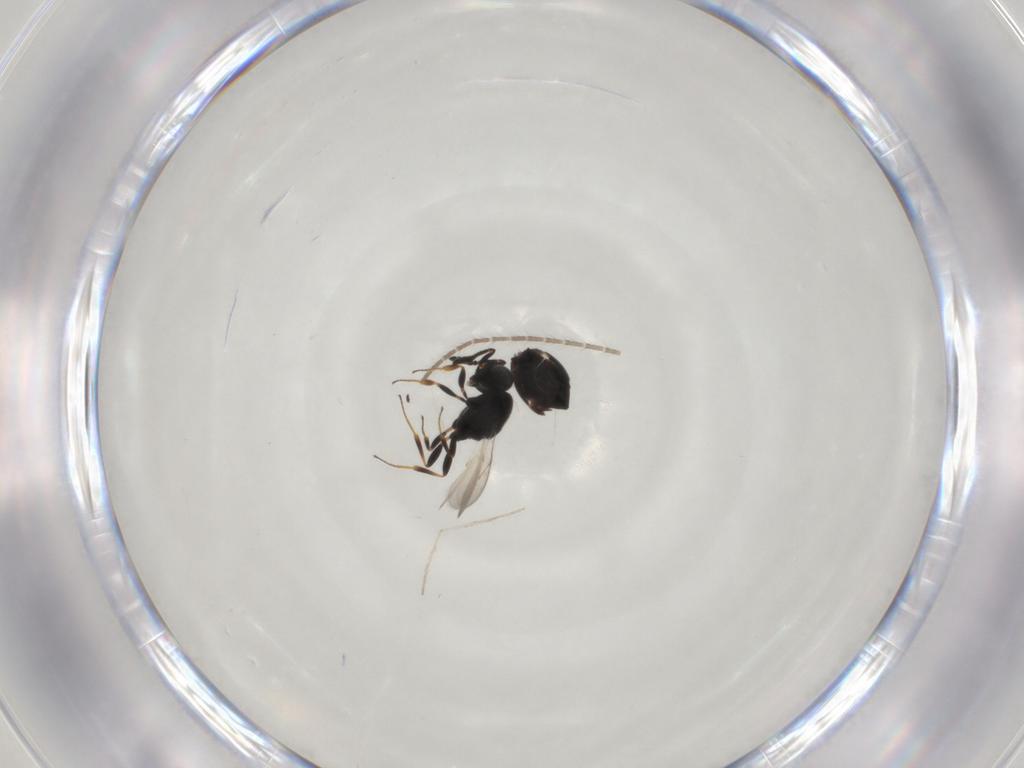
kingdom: Animalia
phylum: Arthropoda
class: Insecta
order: Hymenoptera
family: Scelionidae
